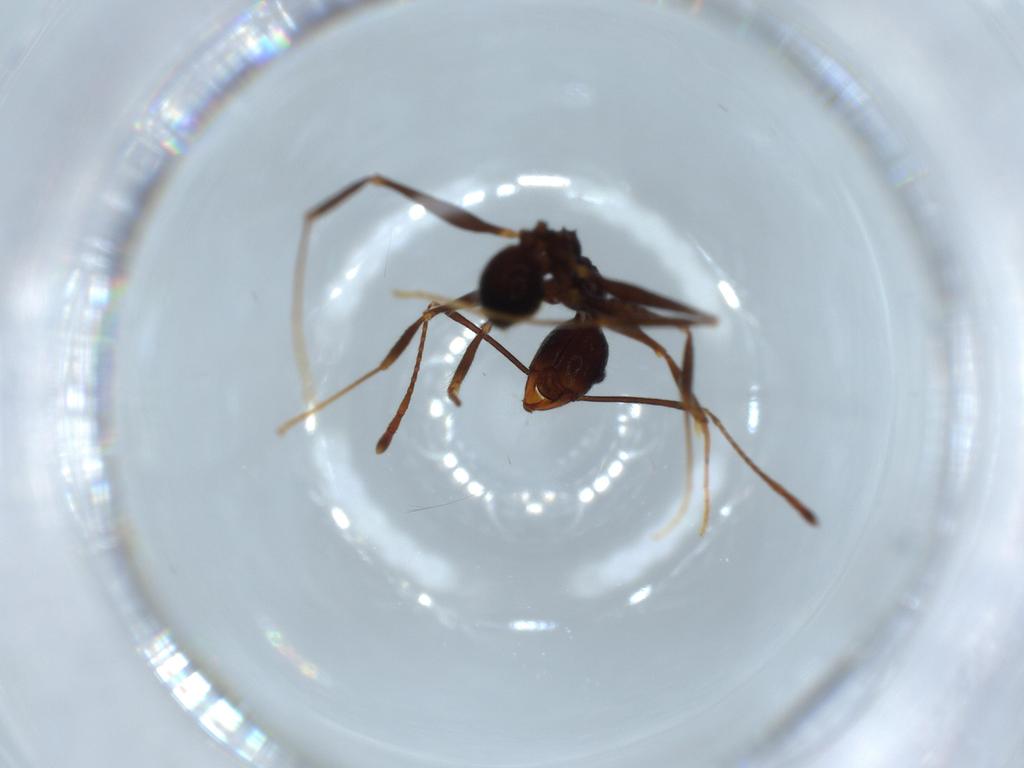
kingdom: Animalia
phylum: Arthropoda
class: Insecta
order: Hymenoptera
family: Formicidae
